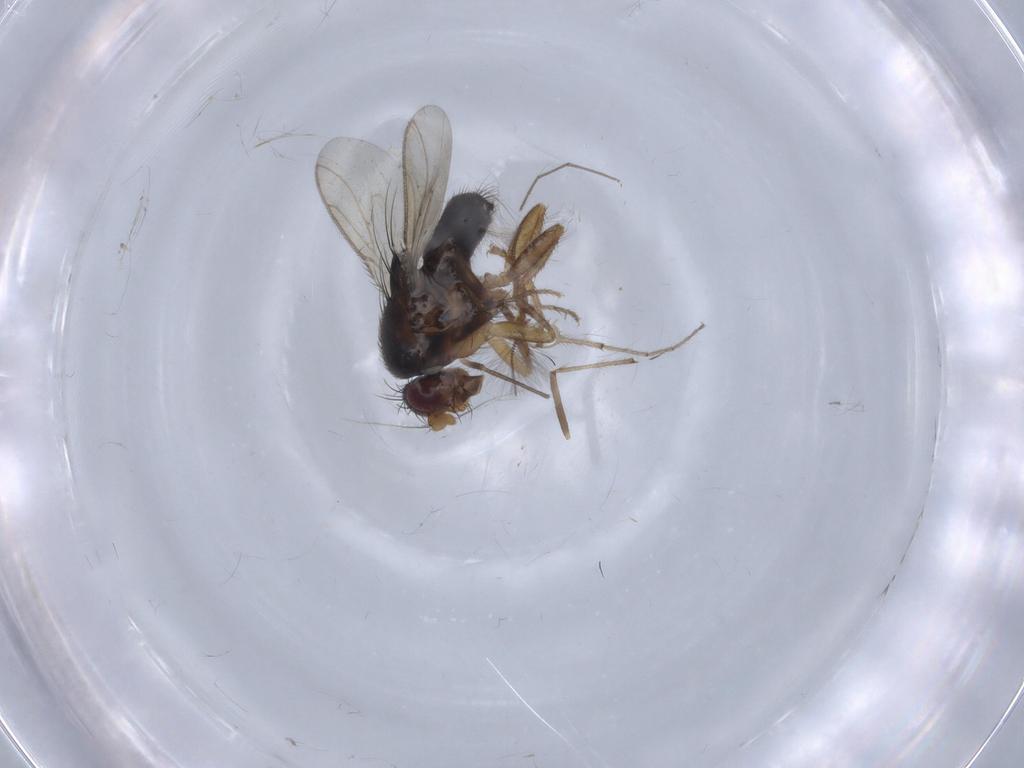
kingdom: Animalia
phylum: Arthropoda
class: Insecta
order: Diptera
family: Chironomidae
